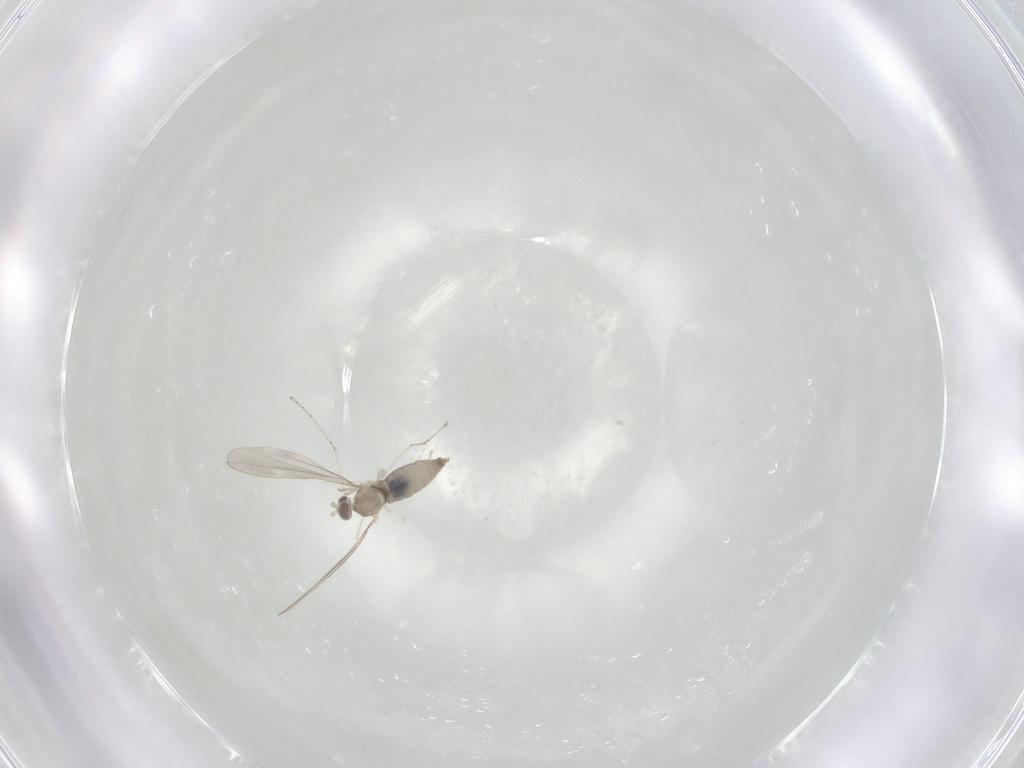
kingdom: Animalia
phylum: Arthropoda
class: Insecta
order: Diptera
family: Cecidomyiidae
